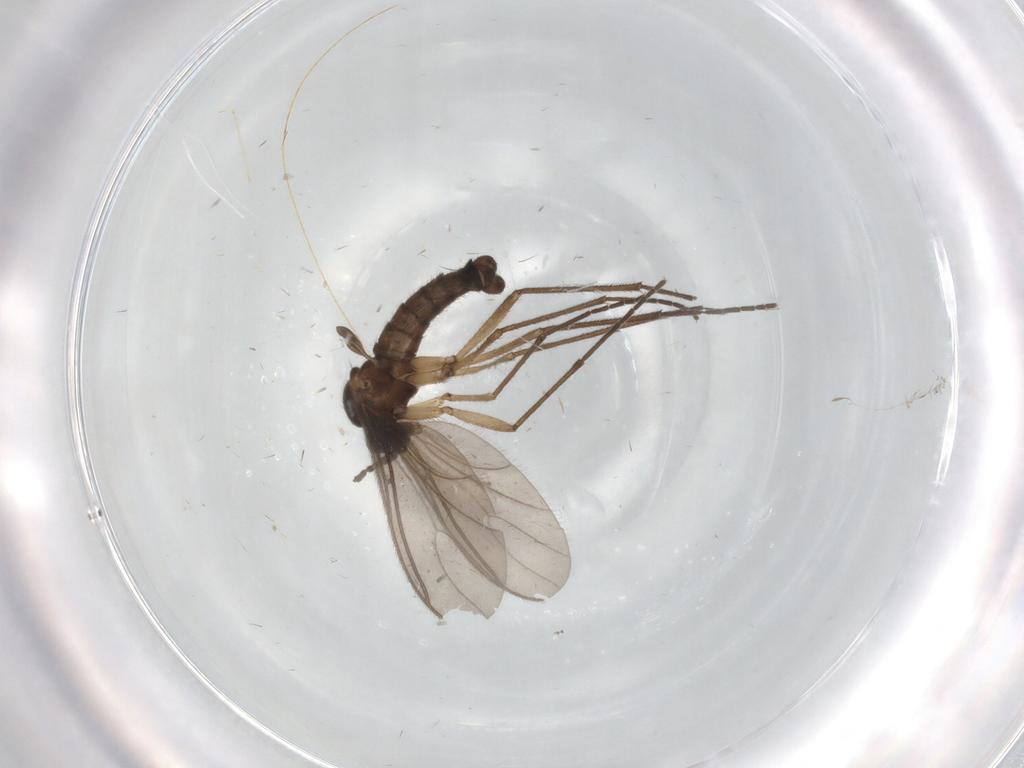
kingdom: Animalia
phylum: Arthropoda
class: Insecta
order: Diptera
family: Sciaridae
